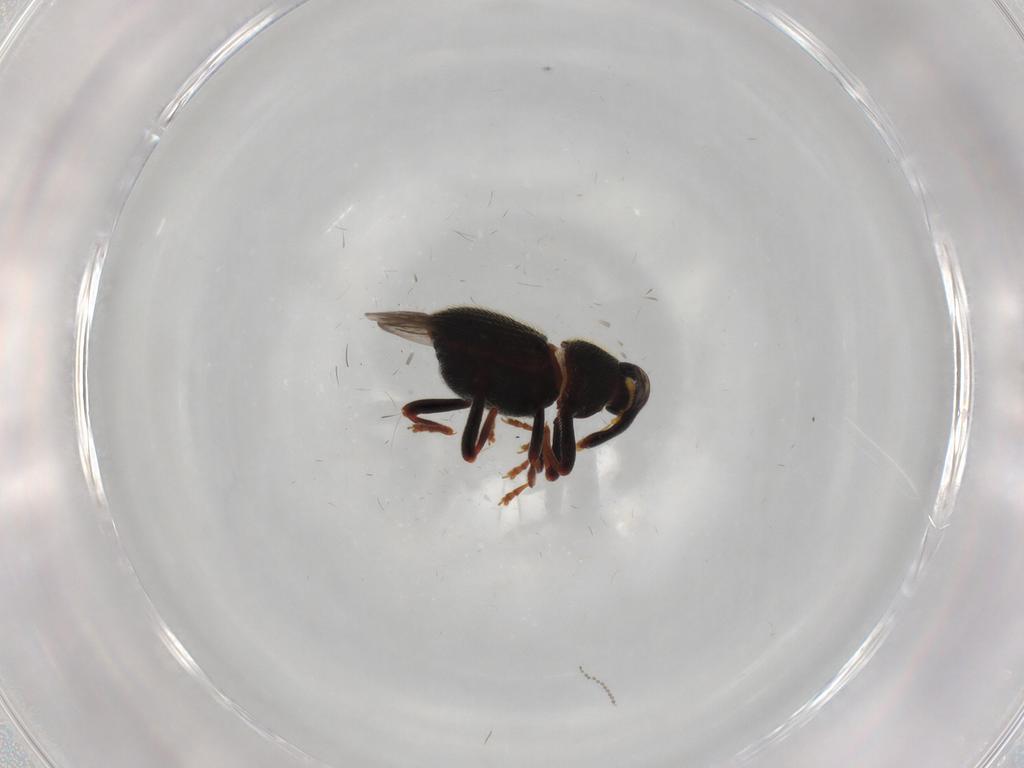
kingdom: Animalia
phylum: Arthropoda
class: Insecta
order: Coleoptera
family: Curculionidae
